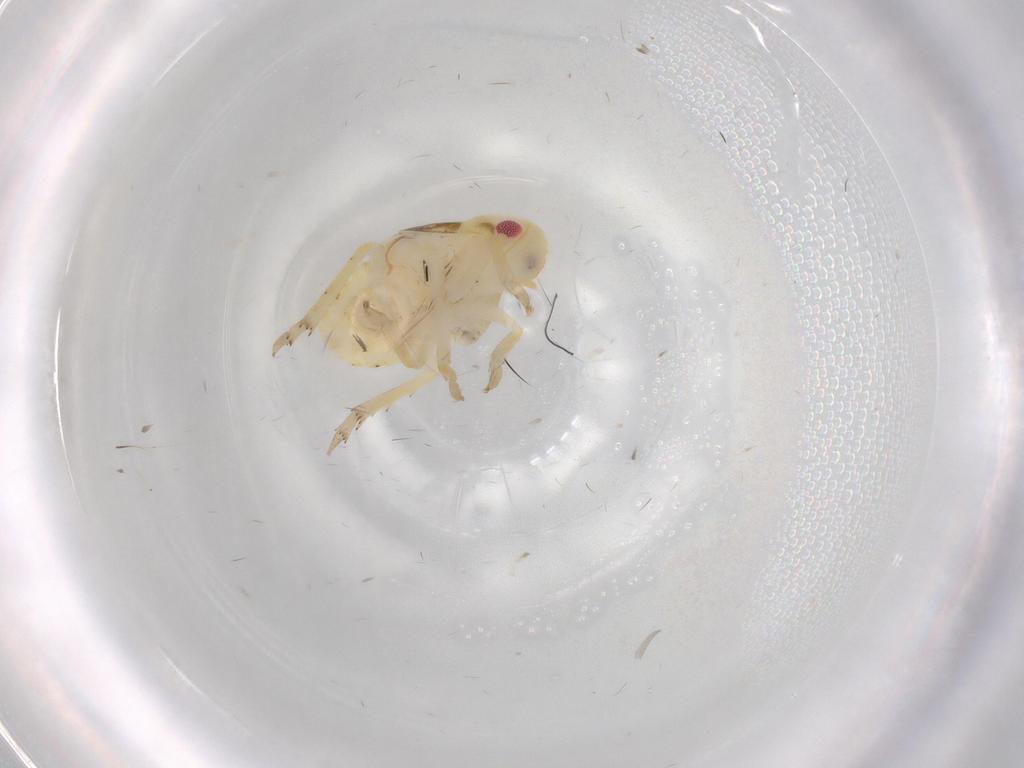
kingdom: Animalia
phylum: Arthropoda
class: Insecta
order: Hemiptera
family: Flatidae
